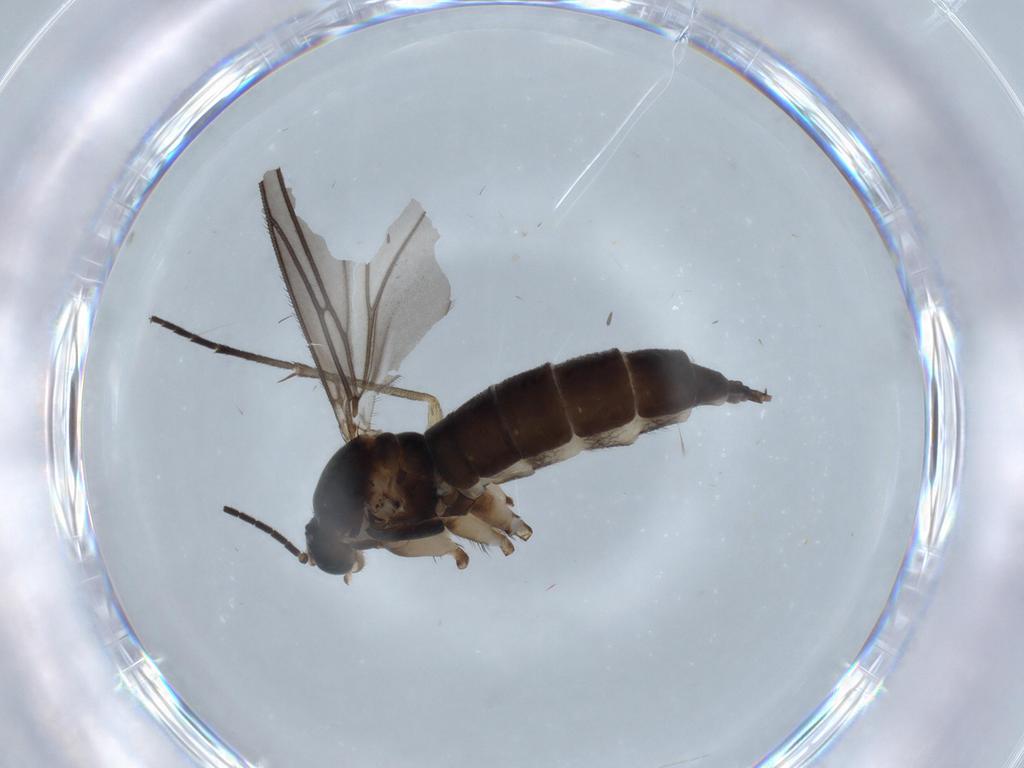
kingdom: Animalia
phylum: Arthropoda
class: Insecta
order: Diptera
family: Sciaridae
